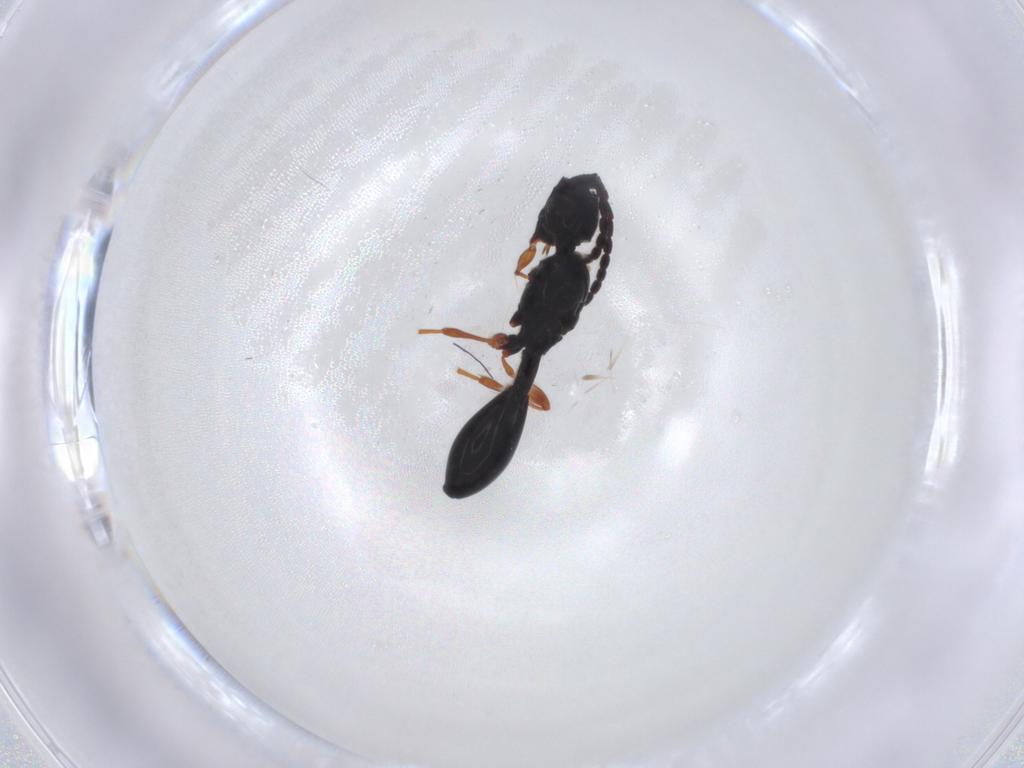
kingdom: Animalia
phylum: Arthropoda
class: Insecta
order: Hymenoptera
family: Diapriidae
